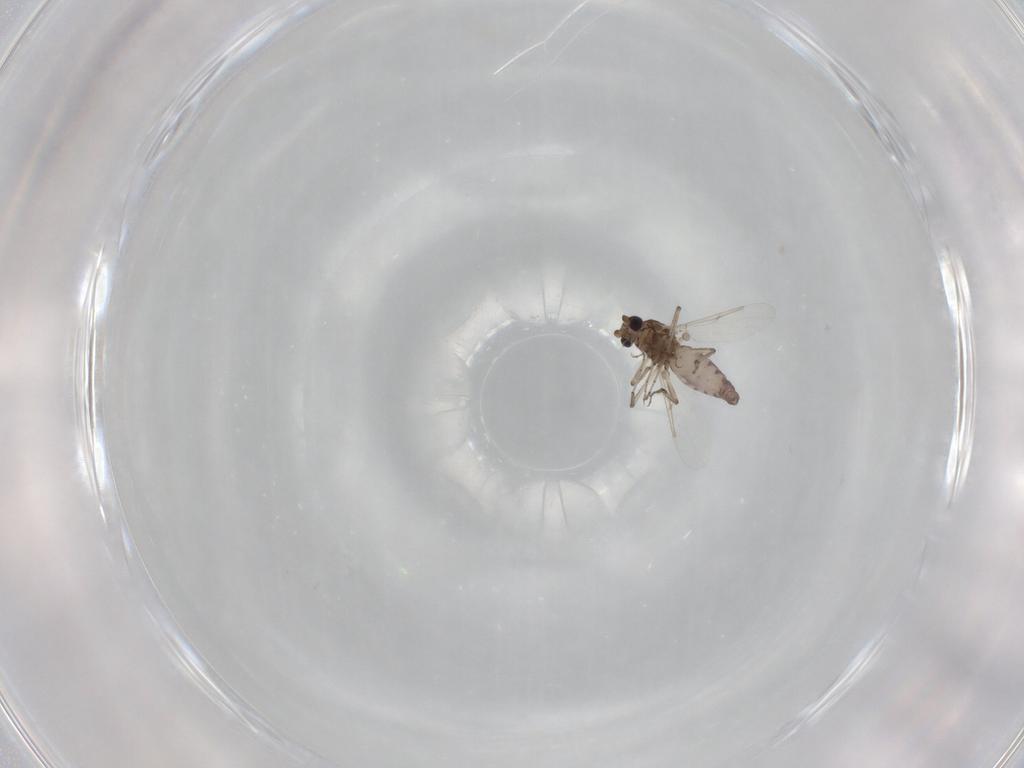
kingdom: Animalia
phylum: Arthropoda
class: Insecta
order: Diptera
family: Ceratopogonidae
